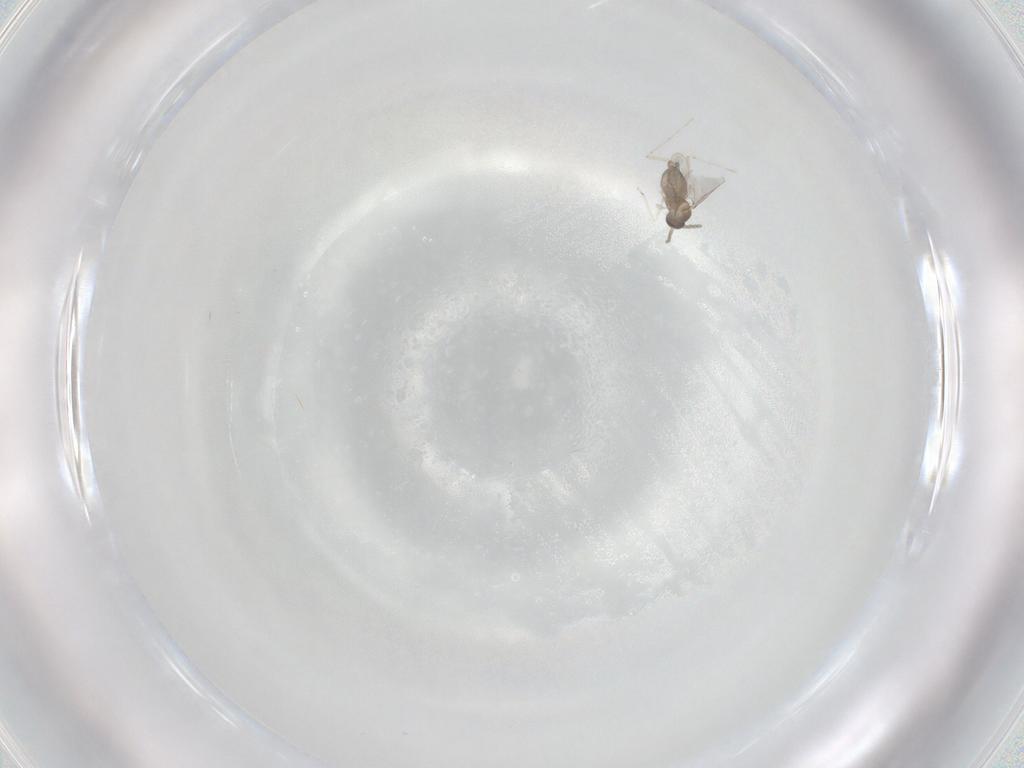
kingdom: Animalia
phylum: Arthropoda
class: Insecta
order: Diptera
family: Cecidomyiidae
